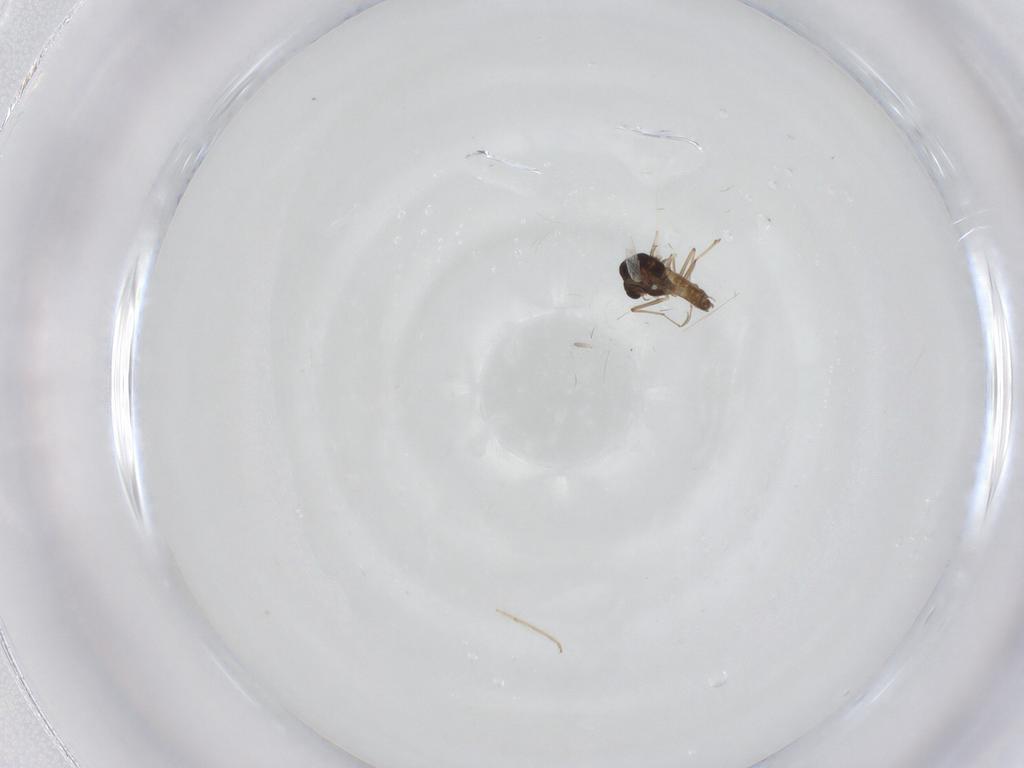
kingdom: Animalia
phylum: Arthropoda
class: Insecta
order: Diptera
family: Chironomidae
